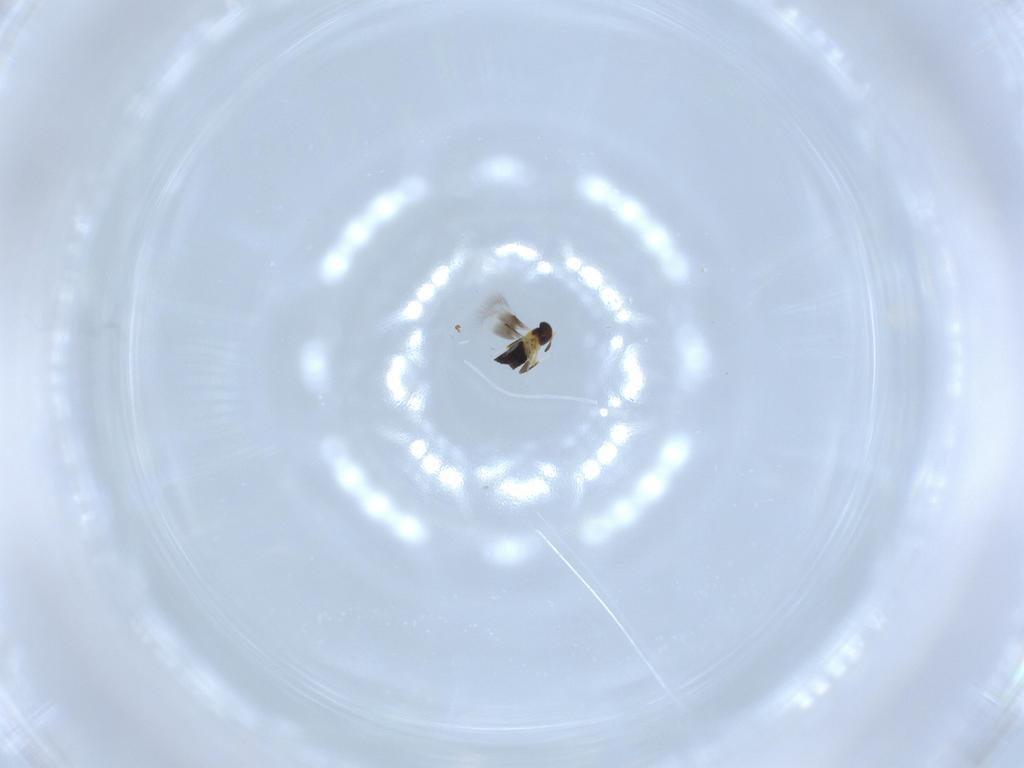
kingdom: Animalia
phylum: Arthropoda
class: Insecta
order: Hymenoptera
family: Signiphoridae
